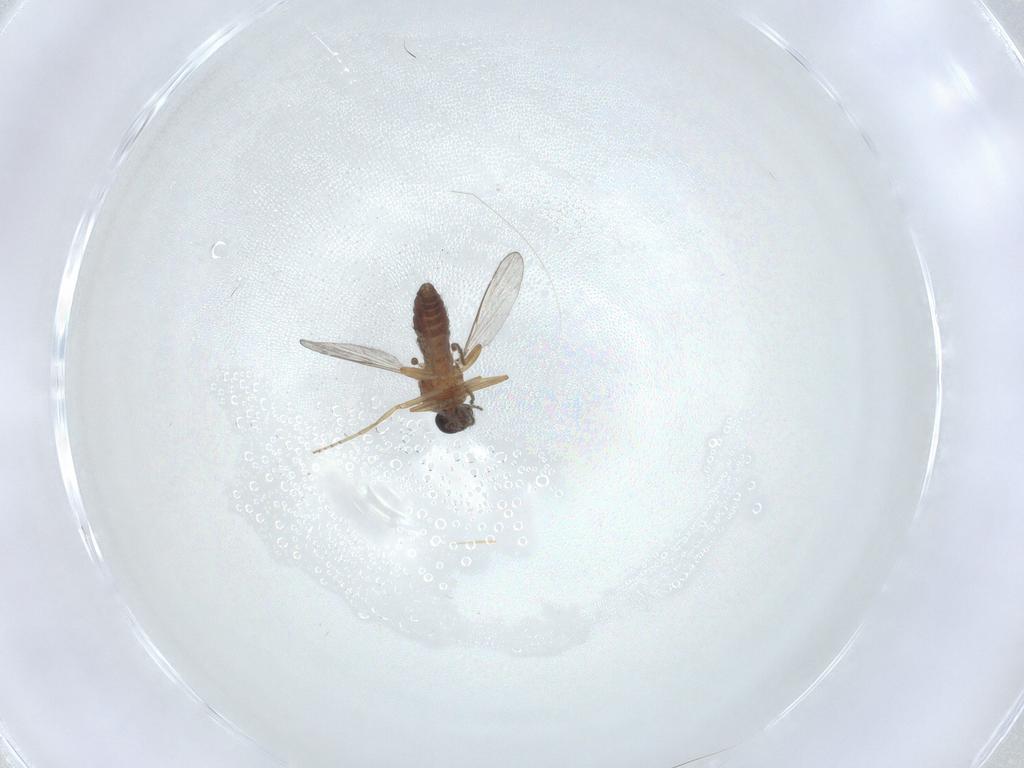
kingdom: Animalia
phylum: Arthropoda
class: Insecta
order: Diptera
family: Ceratopogonidae
